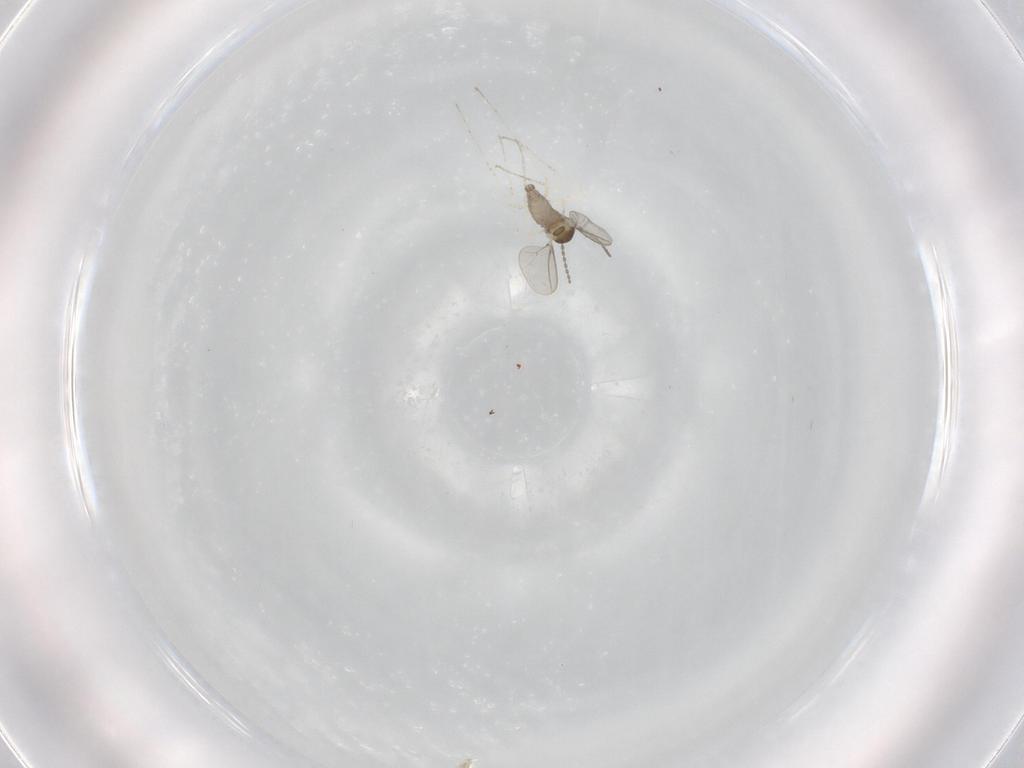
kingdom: Animalia
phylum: Arthropoda
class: Insecta
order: Diptera
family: Cecidomyiidae
